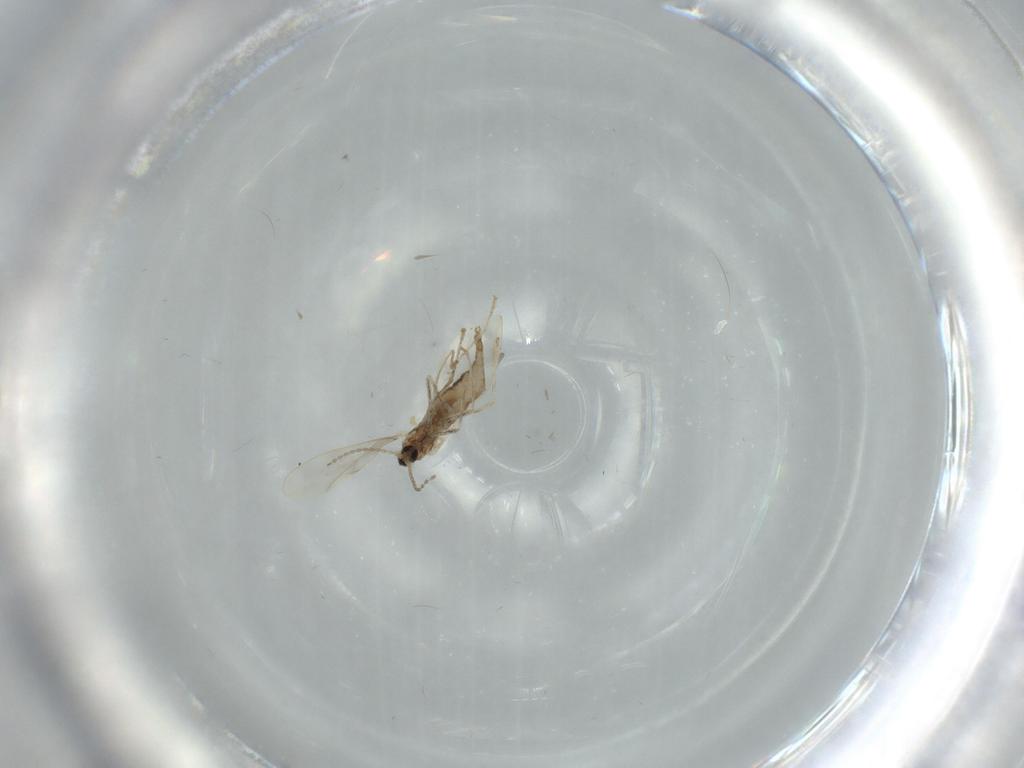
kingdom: Animalia
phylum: Arthropoda
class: Insecta
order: Diptera
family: Cecidomyiidae
